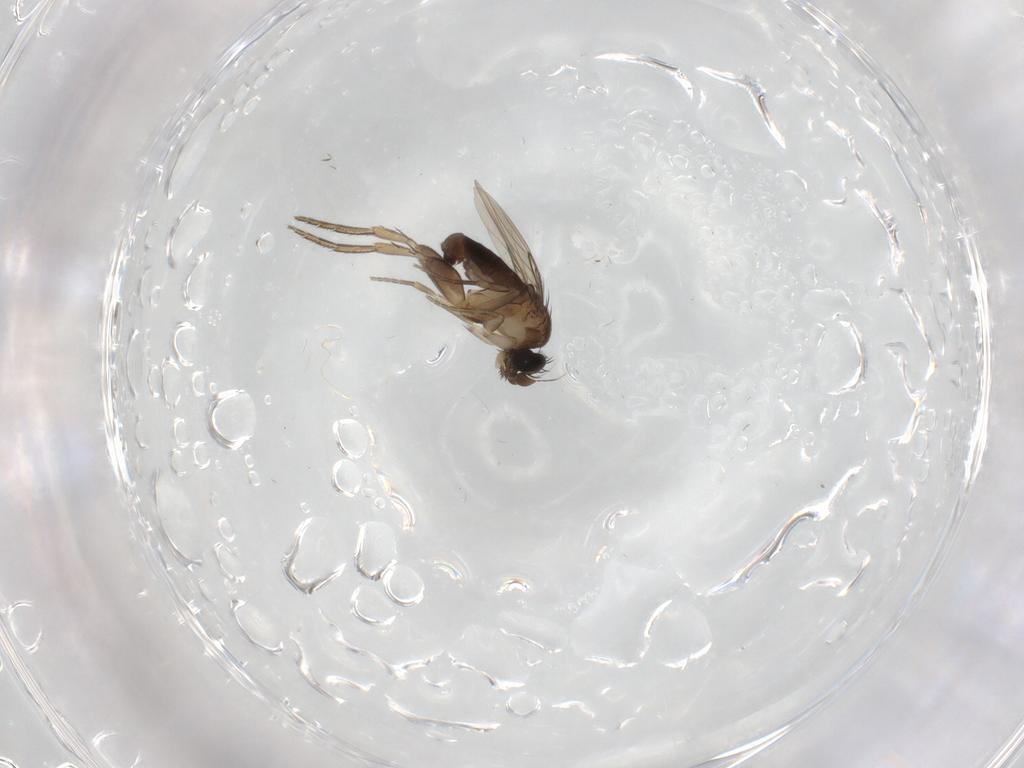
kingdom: Animalia
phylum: Arthropoda
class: Insecta
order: Diptera
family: Phoridae
